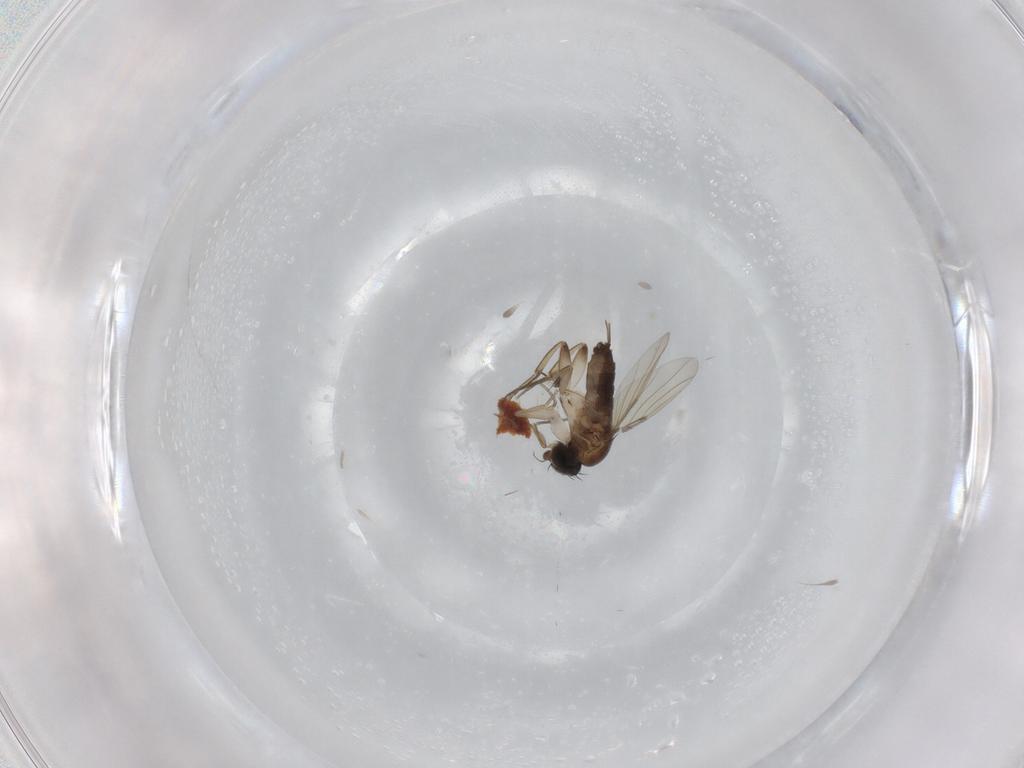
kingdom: Animalia
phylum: Arthropoda
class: Insecta
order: Diptera
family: Phoridae
